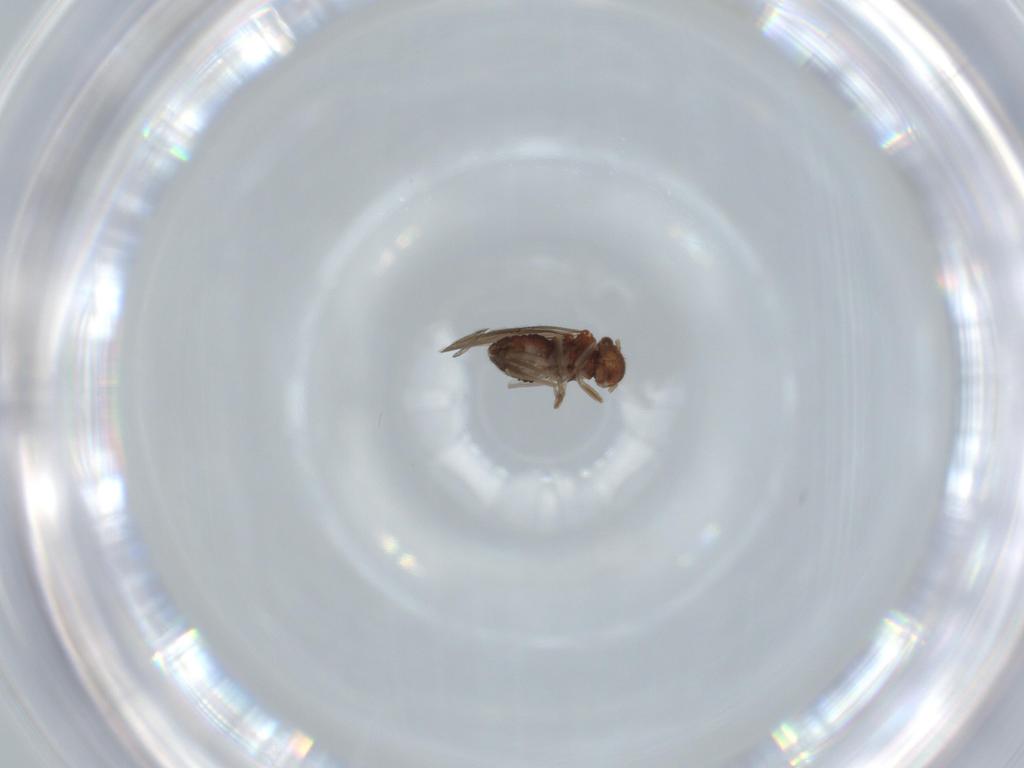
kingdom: Animalia
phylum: Arthropoda
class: Insecta
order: Psocodea
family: Ectopsocidae
